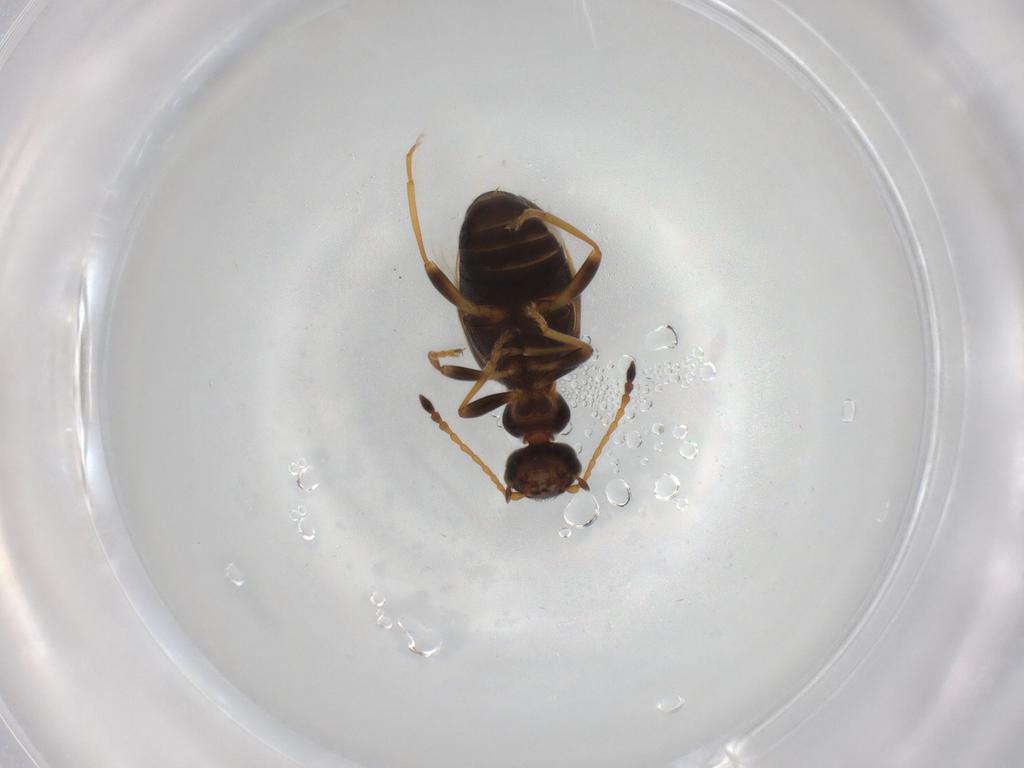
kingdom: Animalia
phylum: Arthropoda
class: Insecta
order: Coleoptera
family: Anthicidae
